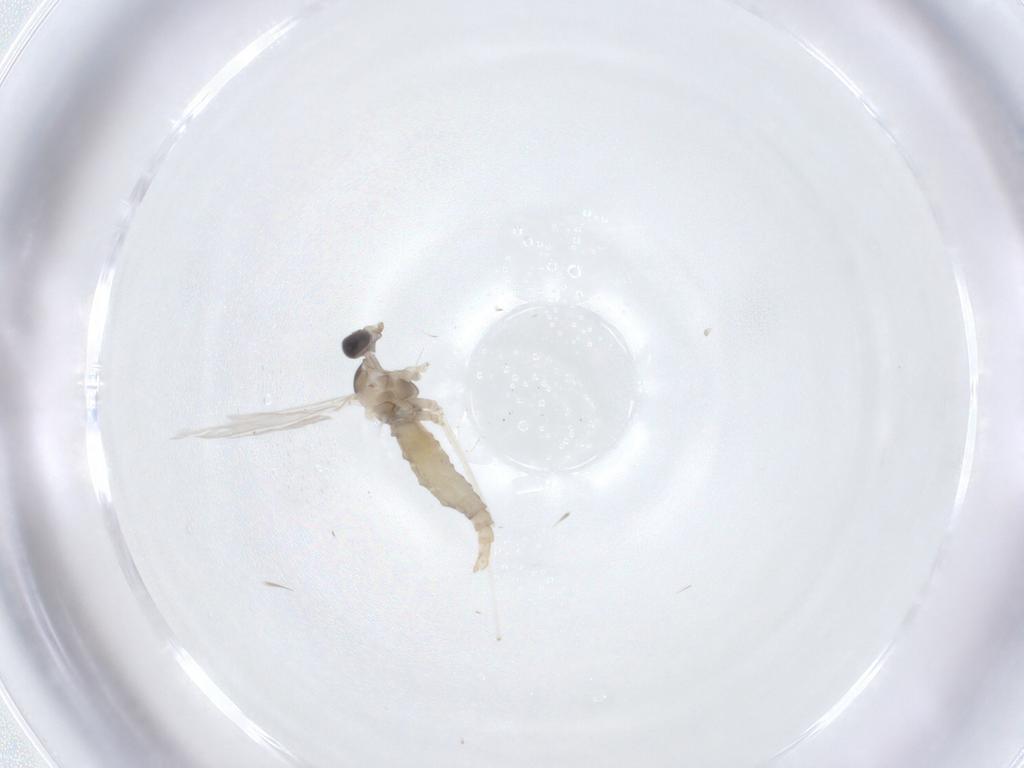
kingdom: Animalia
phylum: Arthropoda
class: Insecta
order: Diptera
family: Cecidomyiidae
